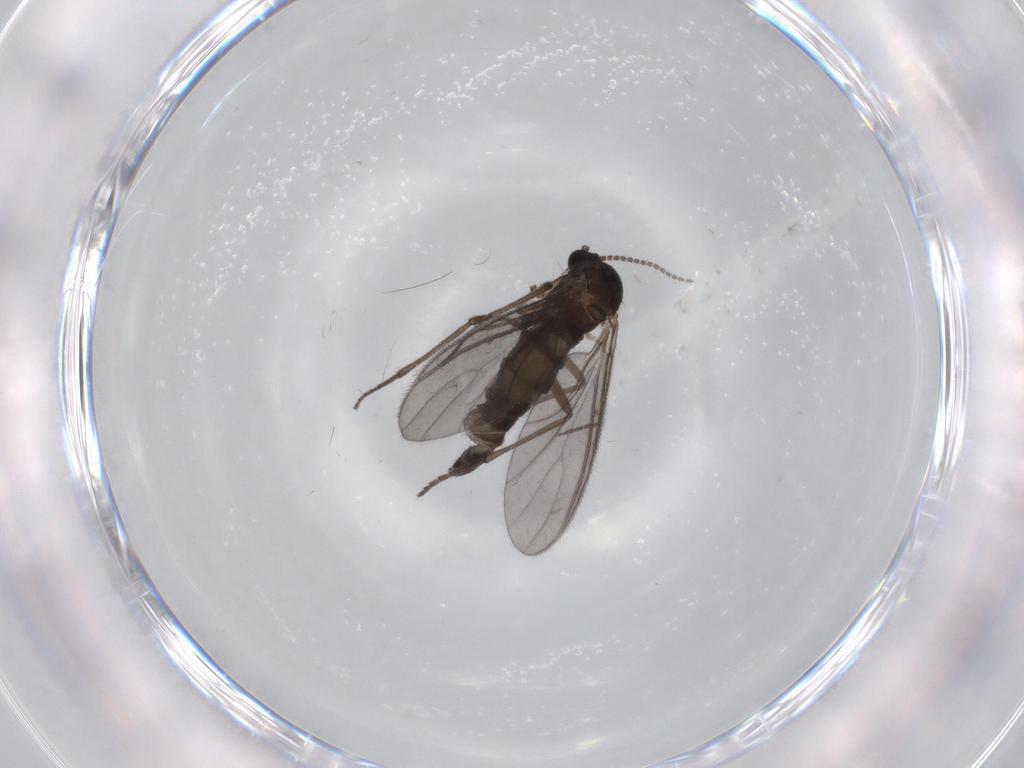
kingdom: Animalia
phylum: Arthropoda
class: Insecta
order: Diptera
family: Sciaridae
